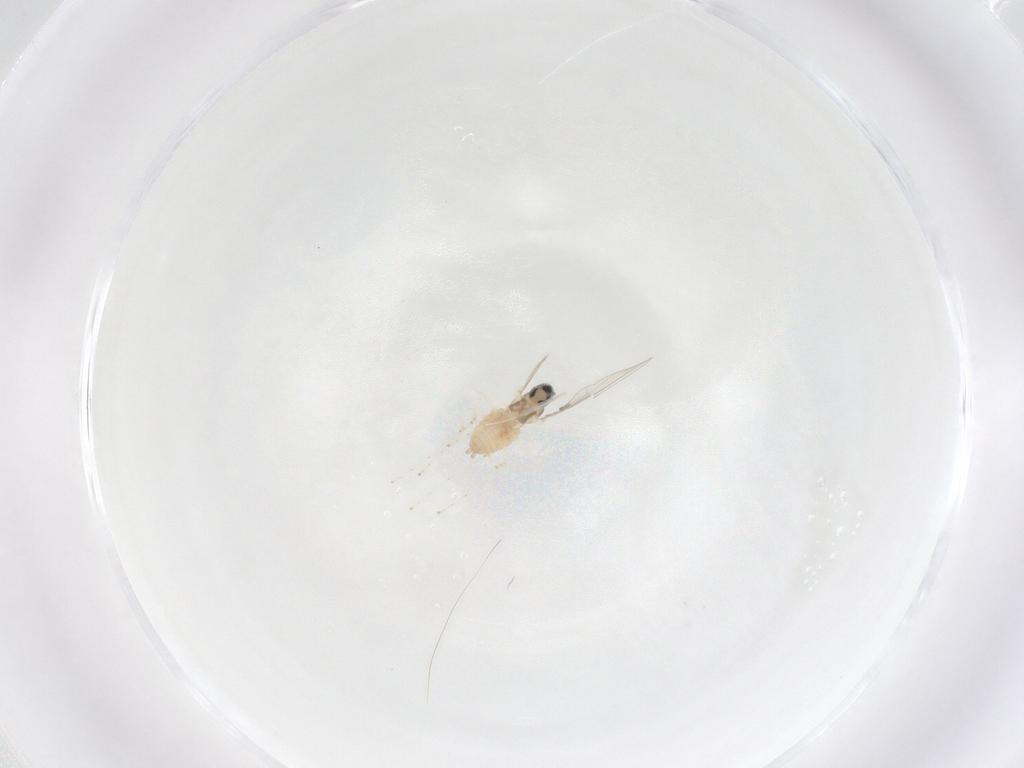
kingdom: Animalia
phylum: Arthropoda
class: Insecta
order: Diptera
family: Cecidomyiidae
